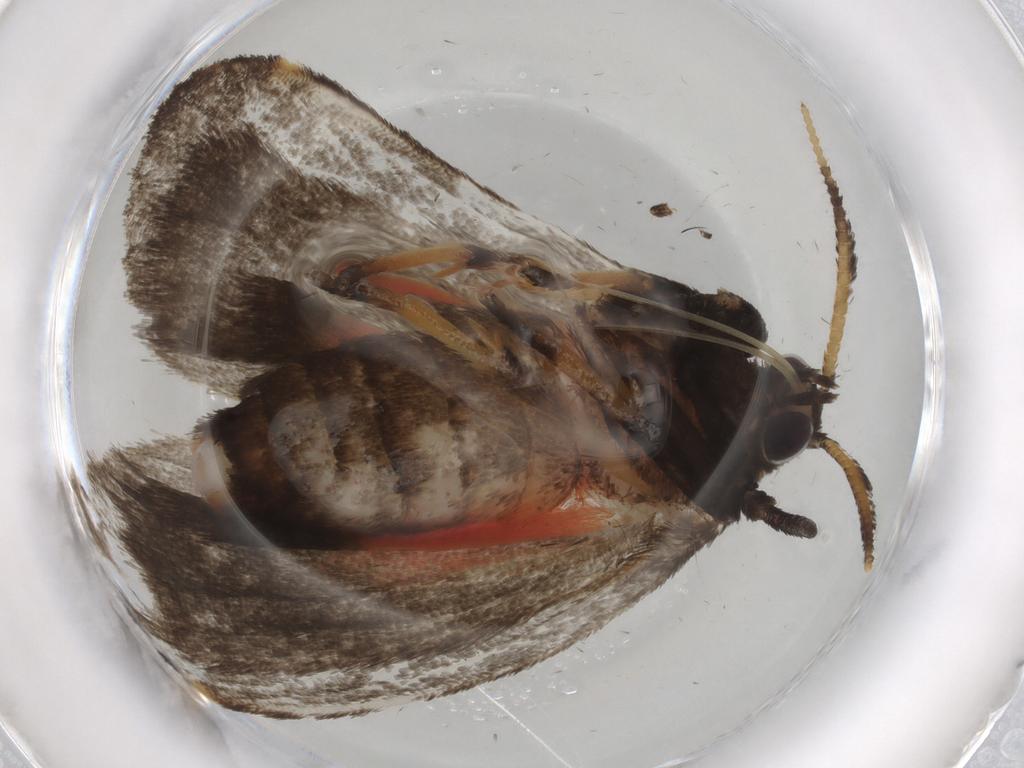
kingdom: Animalia
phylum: Arthropoda
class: Insecta
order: Lepidoptera
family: Erebidae
